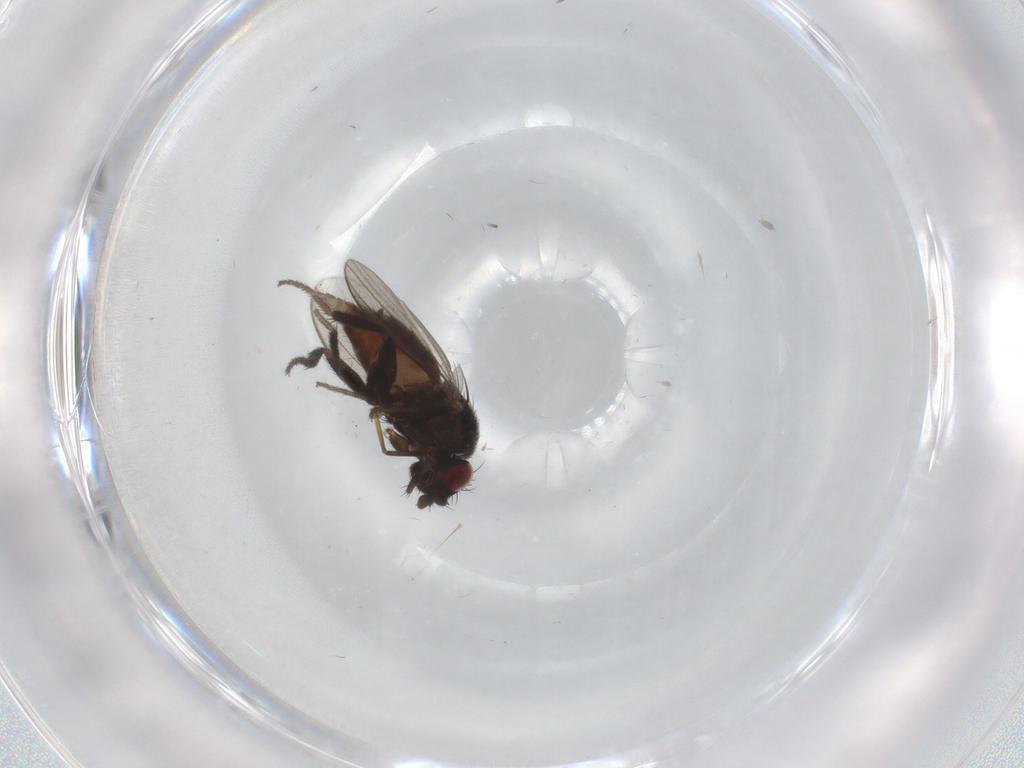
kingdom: Animalia
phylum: Arthropoda
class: Insecta
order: Diptera
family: Milichiidae
